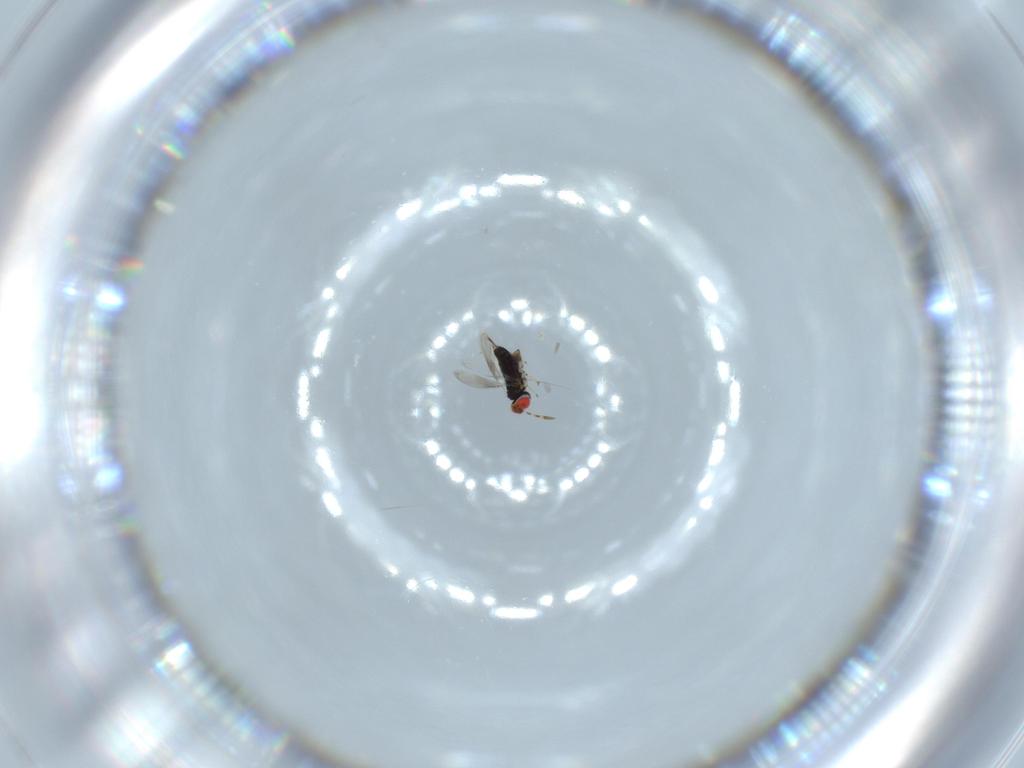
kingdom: Animalia
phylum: Arthropoda
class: Insecta
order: Hymenoptera
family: Azotidae
